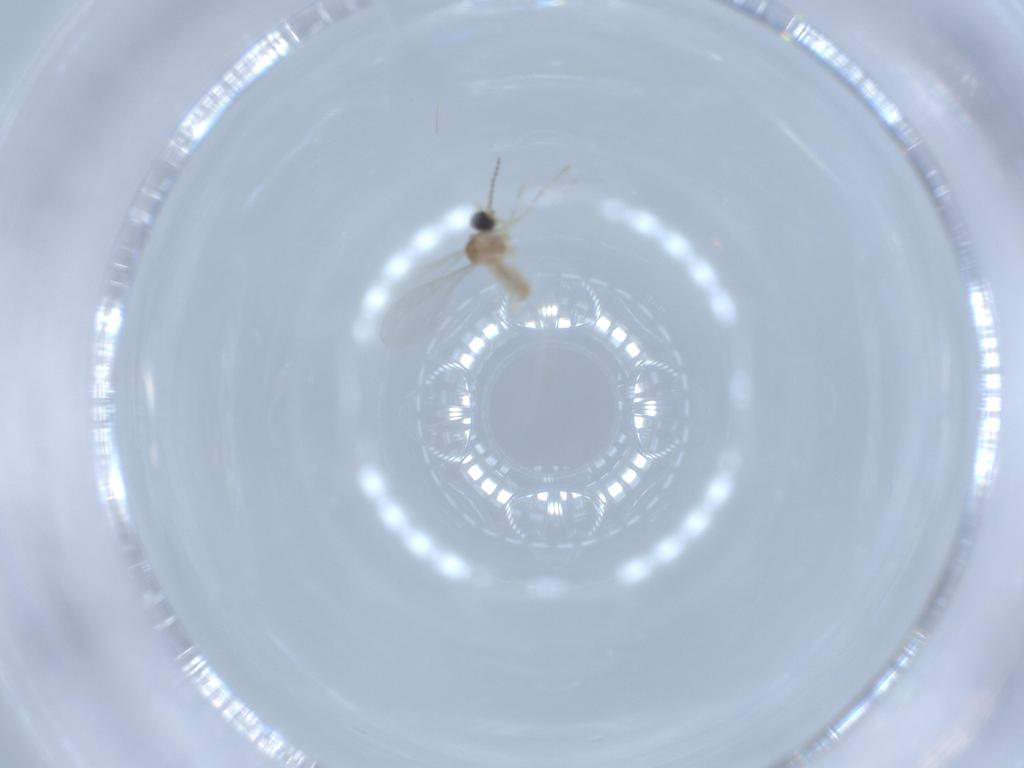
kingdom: Animalia
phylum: Arthropoda
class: Insecta
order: Diptera
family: Cecidomyiidae
